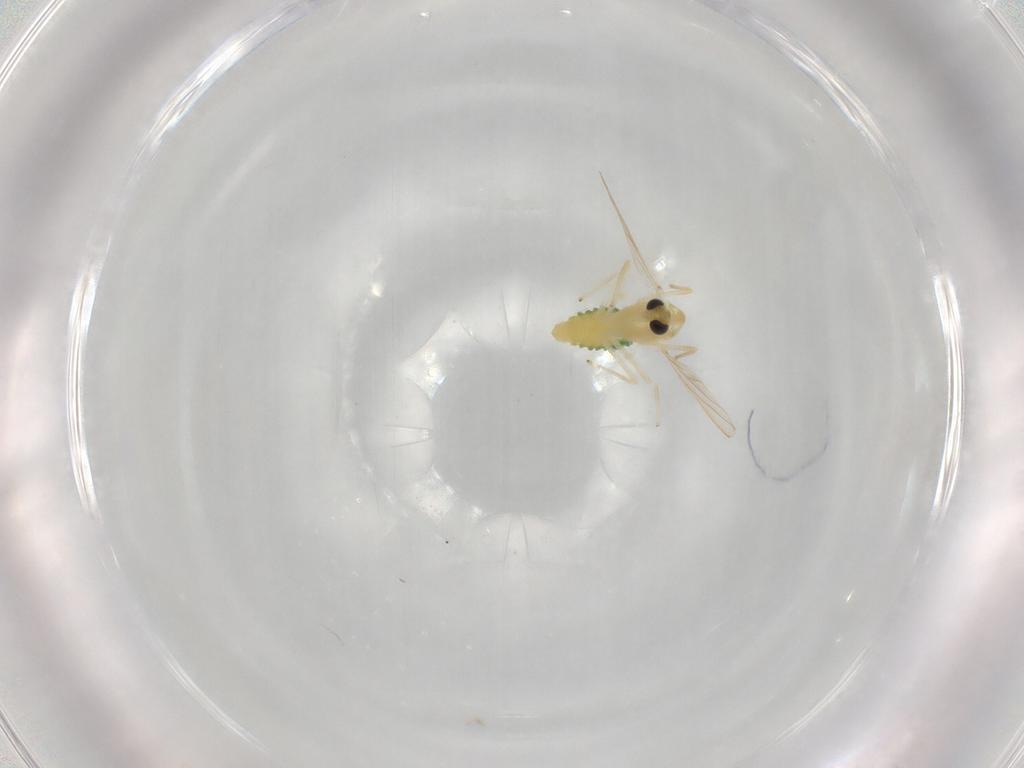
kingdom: Animalia
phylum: Arthropoda
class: Insecta
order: Diptera
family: Chironomidae
